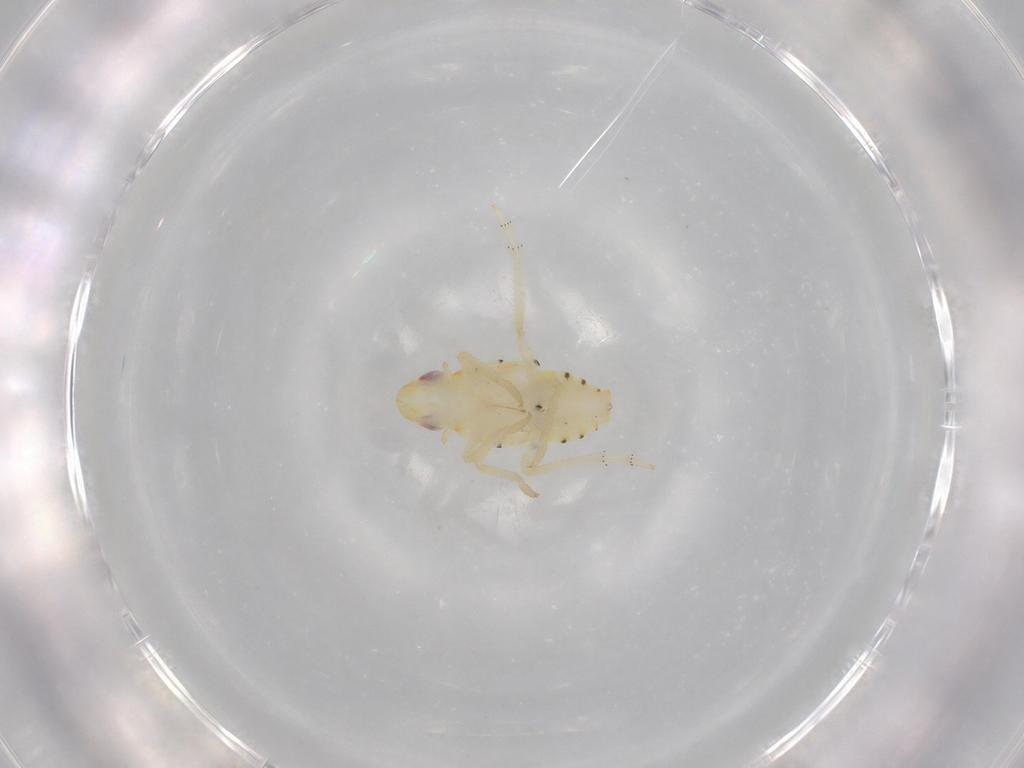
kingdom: Animalia
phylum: Arthropoda
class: Insecta
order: Hemiptera
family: Tropiduchidae
